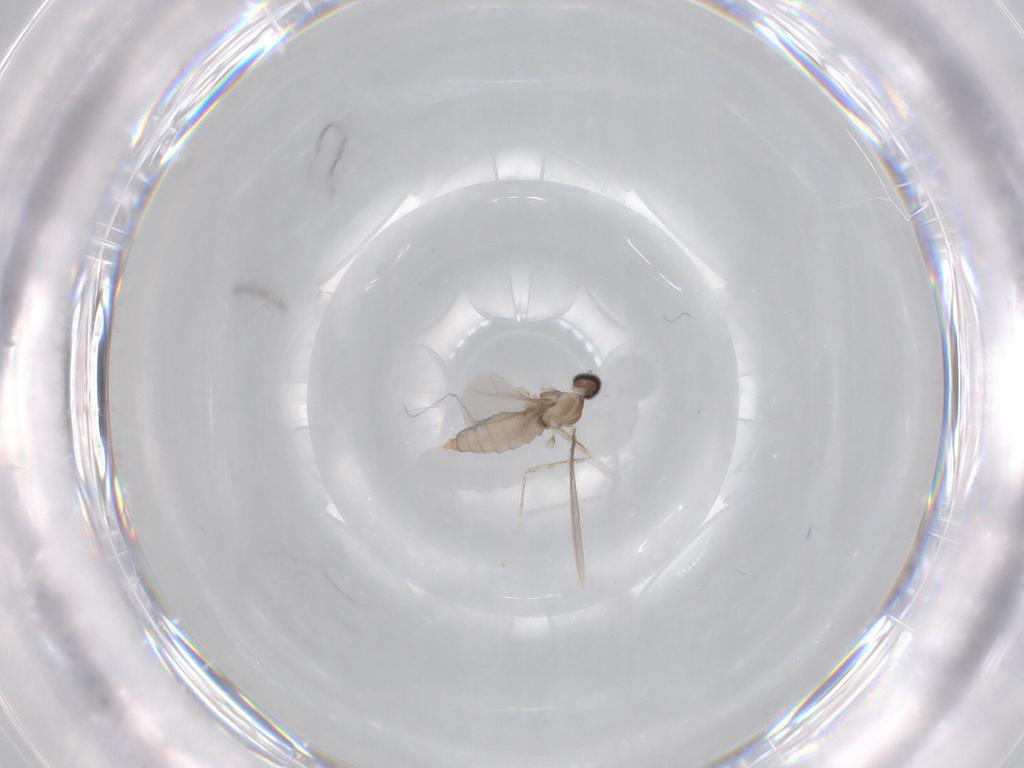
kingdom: Animalia
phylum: Arthropoda
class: Insecta
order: Diptera
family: Cecidomyiidae
